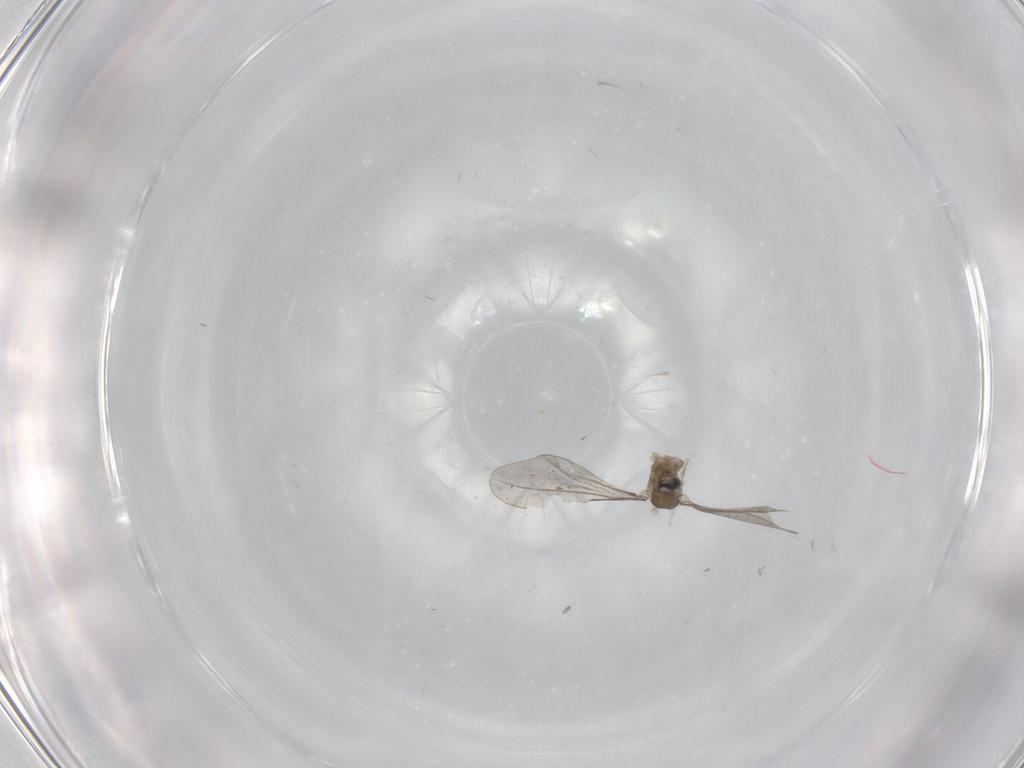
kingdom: Animalia
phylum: Arthropoda
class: Insecta
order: Diptera
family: Cecidomyiidae
